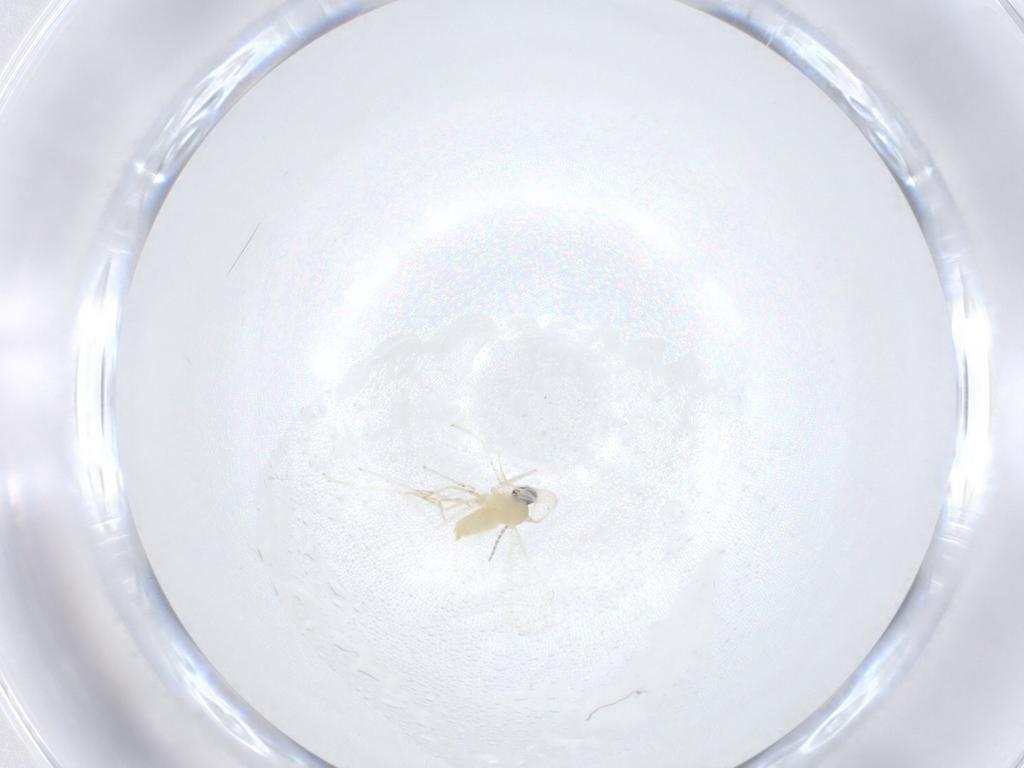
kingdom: Animalia
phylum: Arthropoda
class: Insecta
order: Diptera
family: Cecidomyiidae
